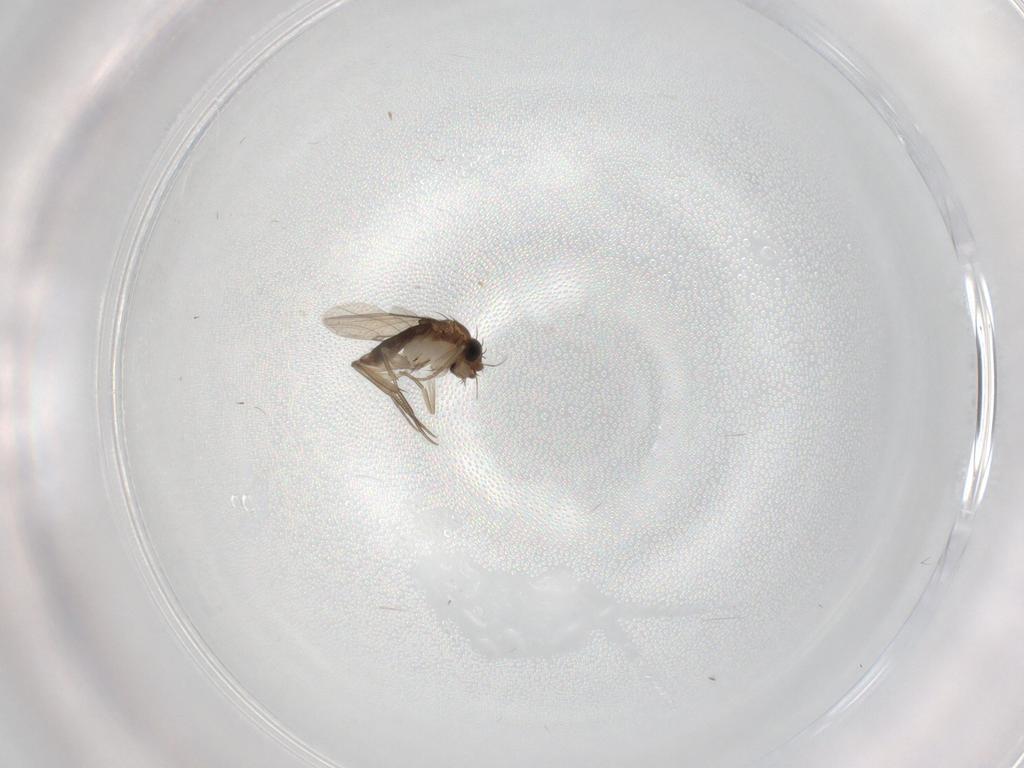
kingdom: Animalia
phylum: Arthropoda
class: Insecta
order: Diptera
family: Phoridae
